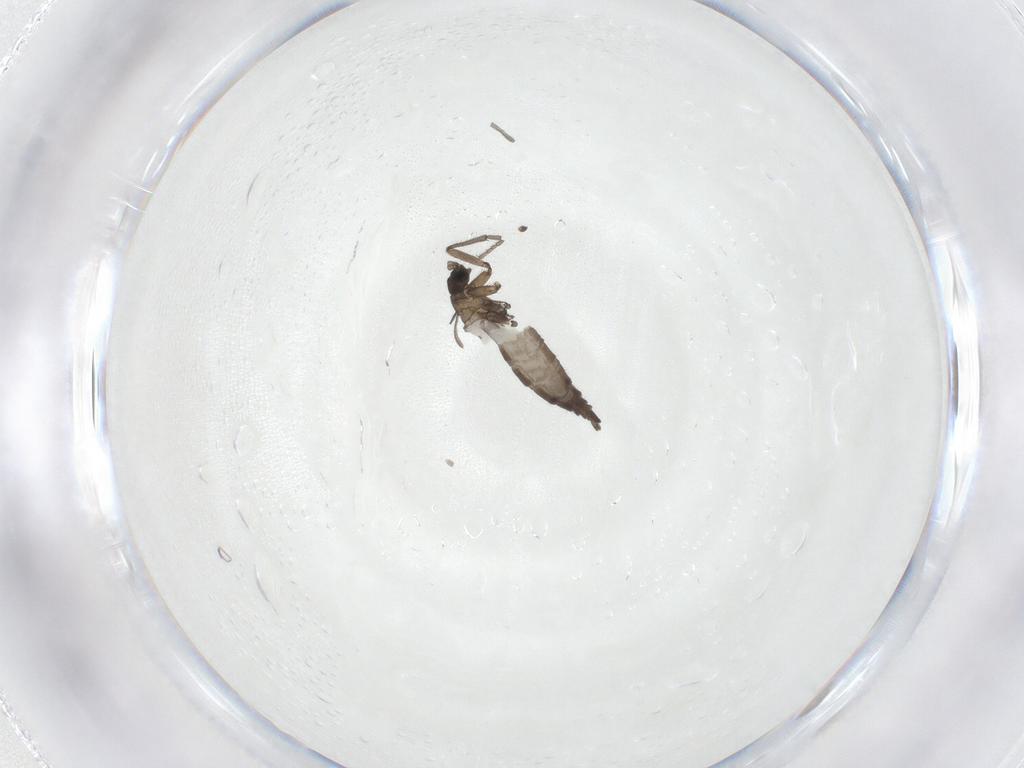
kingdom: Animalia
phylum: Arthropoda
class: Insecta
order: Diptera
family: Sciaridae
